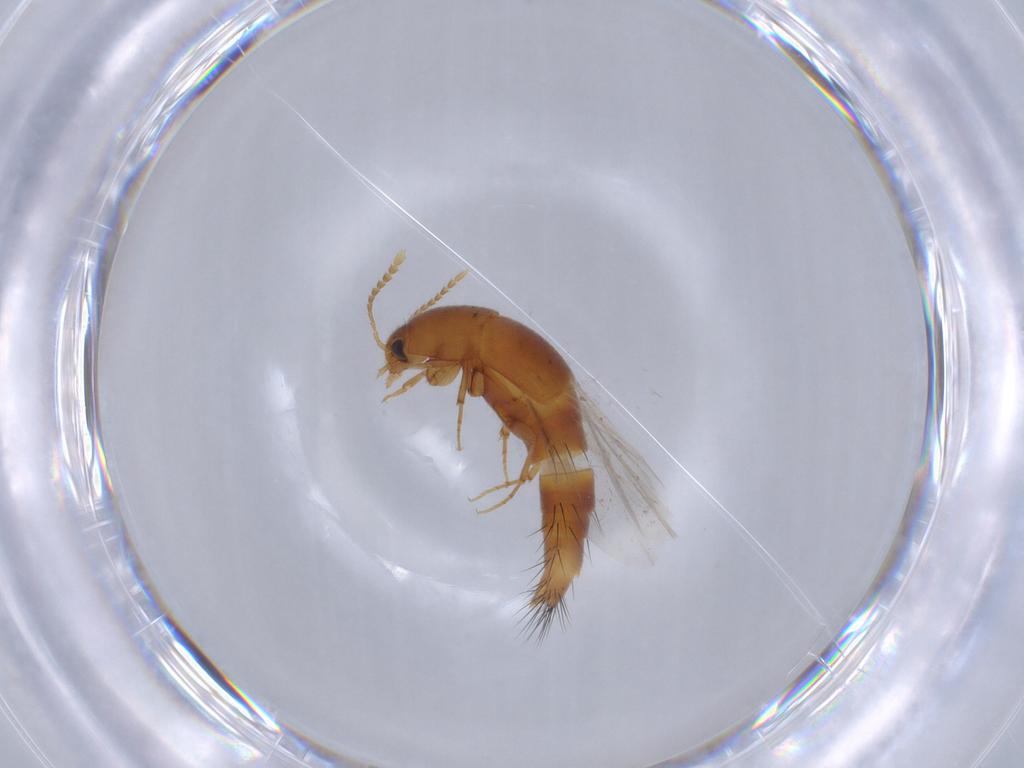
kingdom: Animalia
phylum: Arthropoda
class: Insecta
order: Coleoptera
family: Staphylinidae
